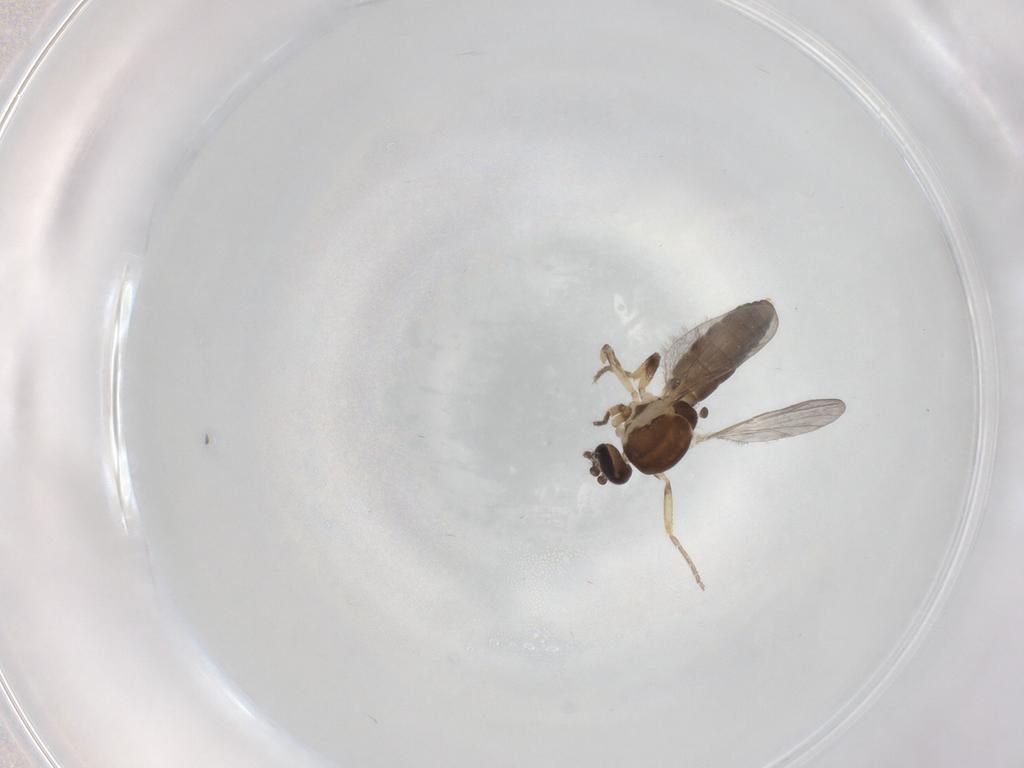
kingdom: Animalia
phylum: Arthropoda
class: Insecta
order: Diptera
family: Ceratopogonidae
